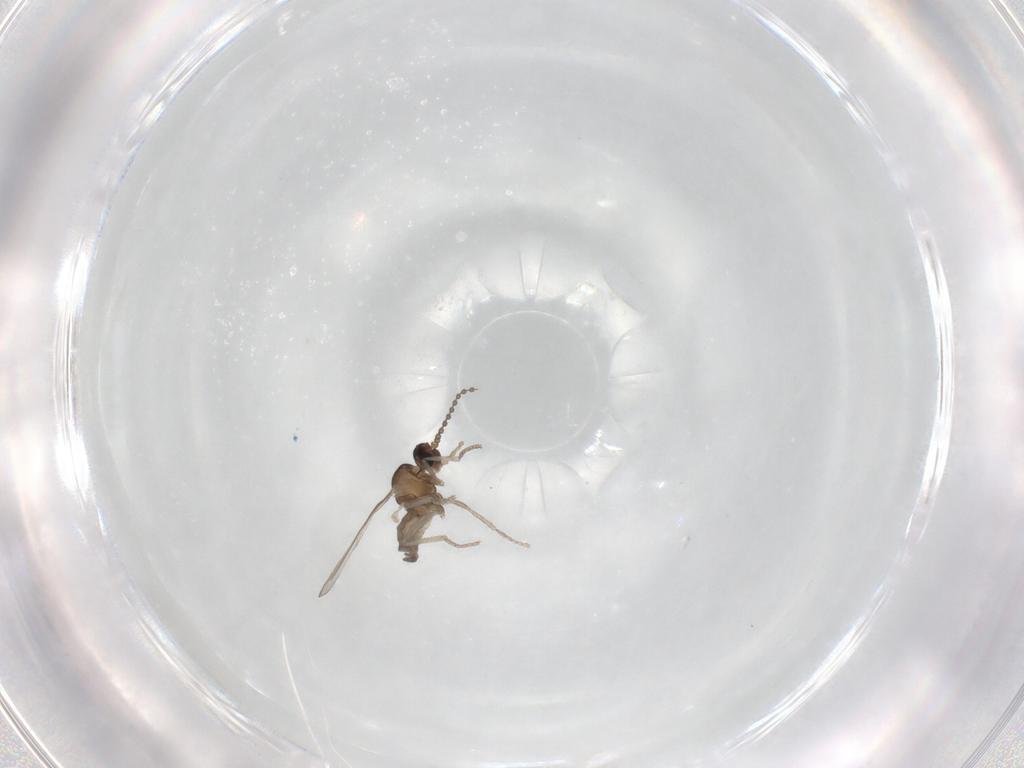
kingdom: Animalia
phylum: Arthropoda
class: Insecta
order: Diptera
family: Cecidomyiidae
